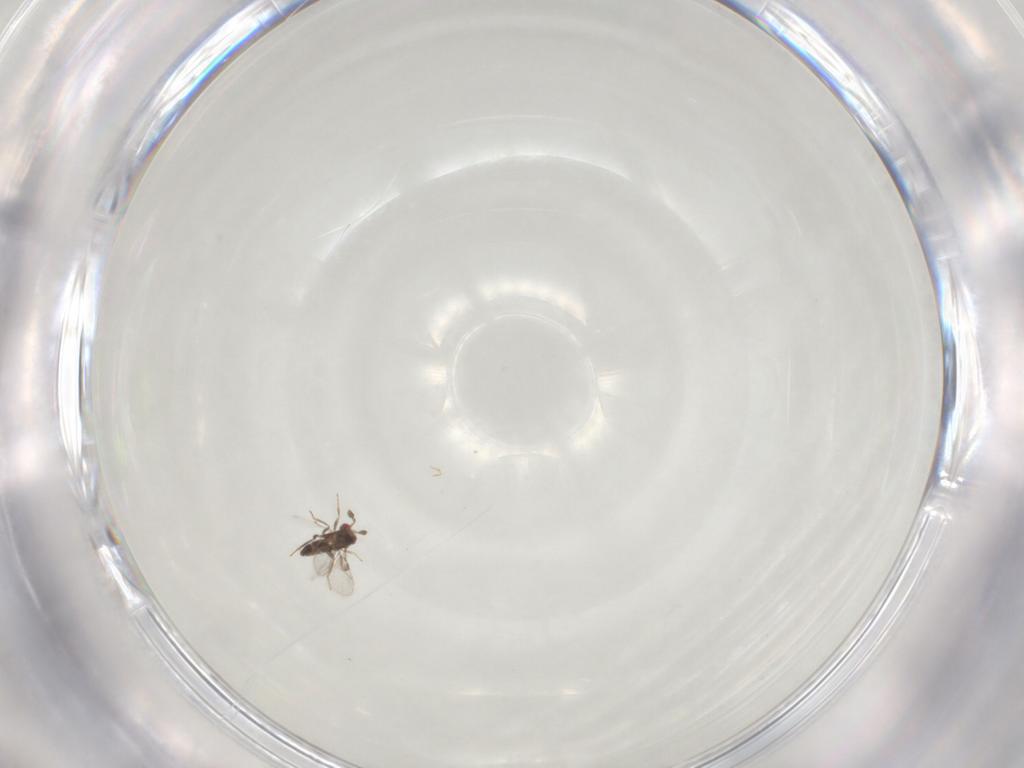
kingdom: Animalia
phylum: Arthropoda
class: Insecta
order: Hymenoptera
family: Trichogrammatidae
